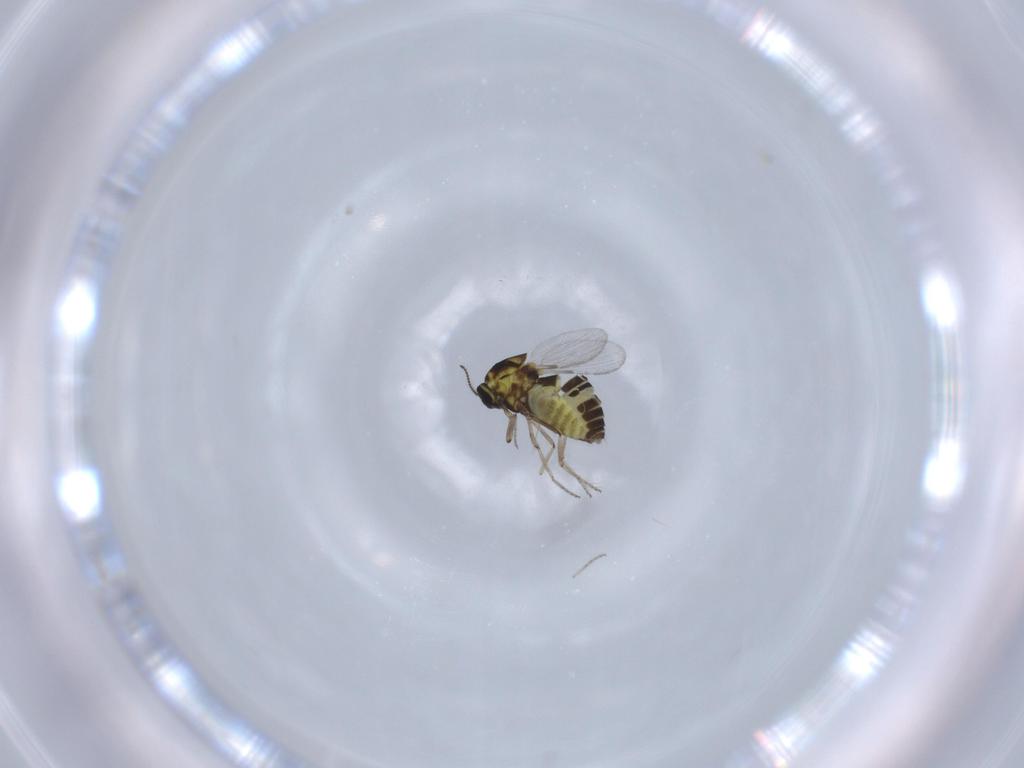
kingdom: Animalia
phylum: Arthropoda
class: Insecta
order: Diptera
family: Ceratopogonidae
